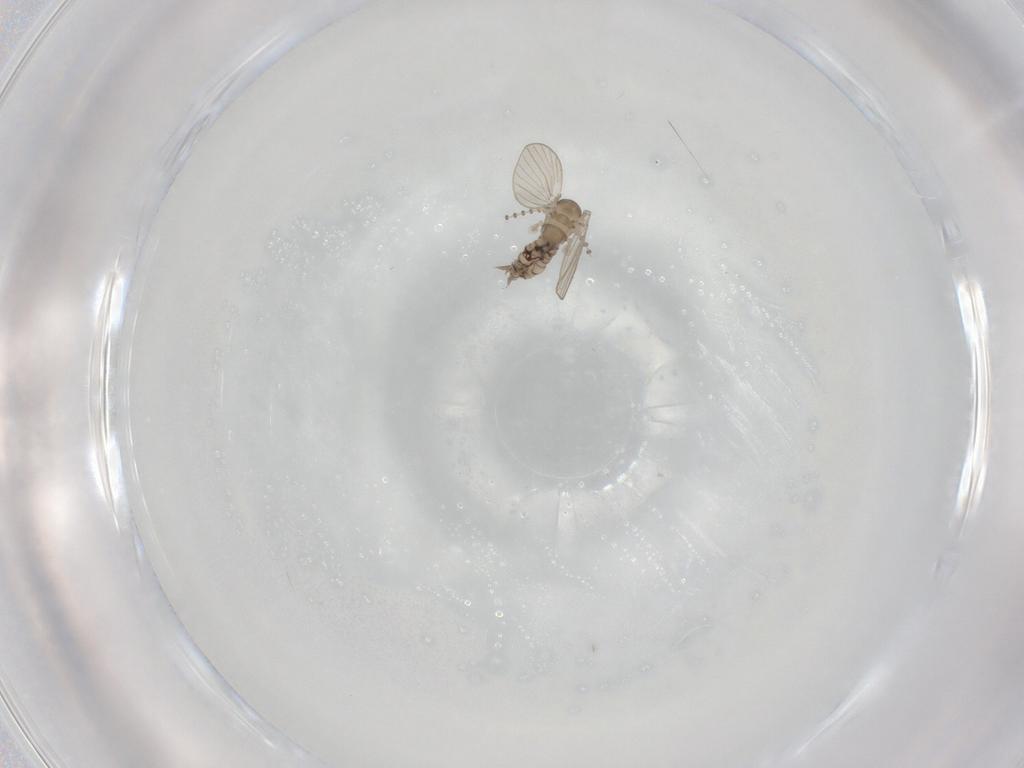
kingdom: Animalia
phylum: Arthropoda
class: Insecta
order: Diptera
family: Psychodidae
